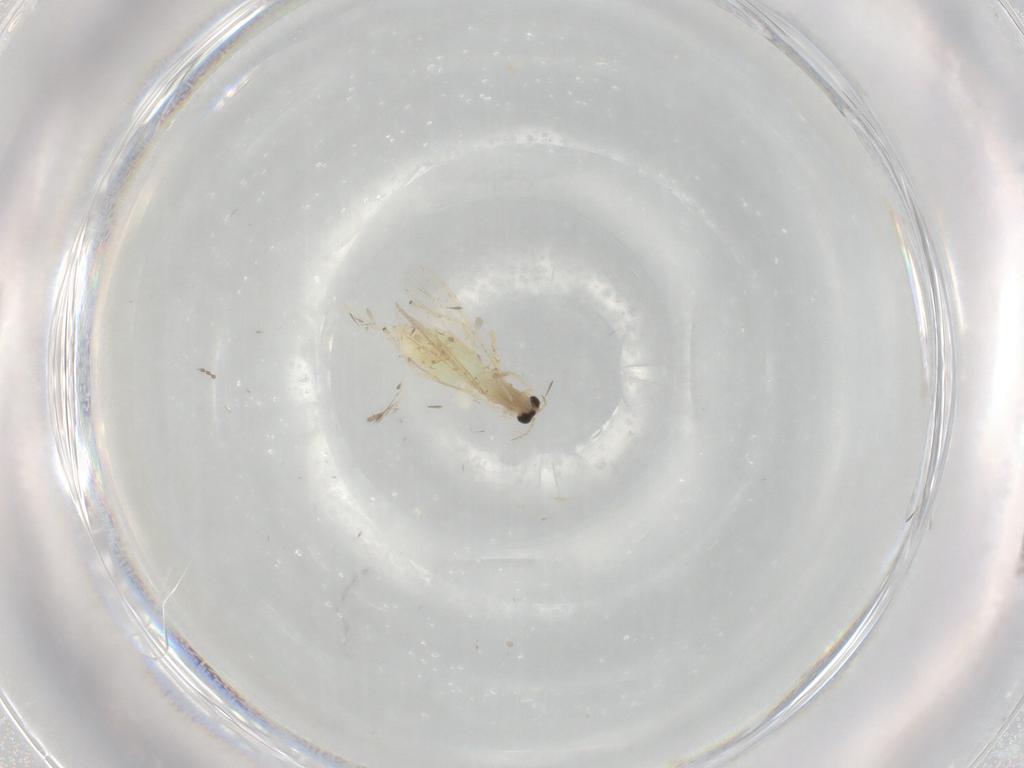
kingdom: Animalia
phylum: Arthropoda
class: Insecta
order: Diptera
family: Chironomidae
